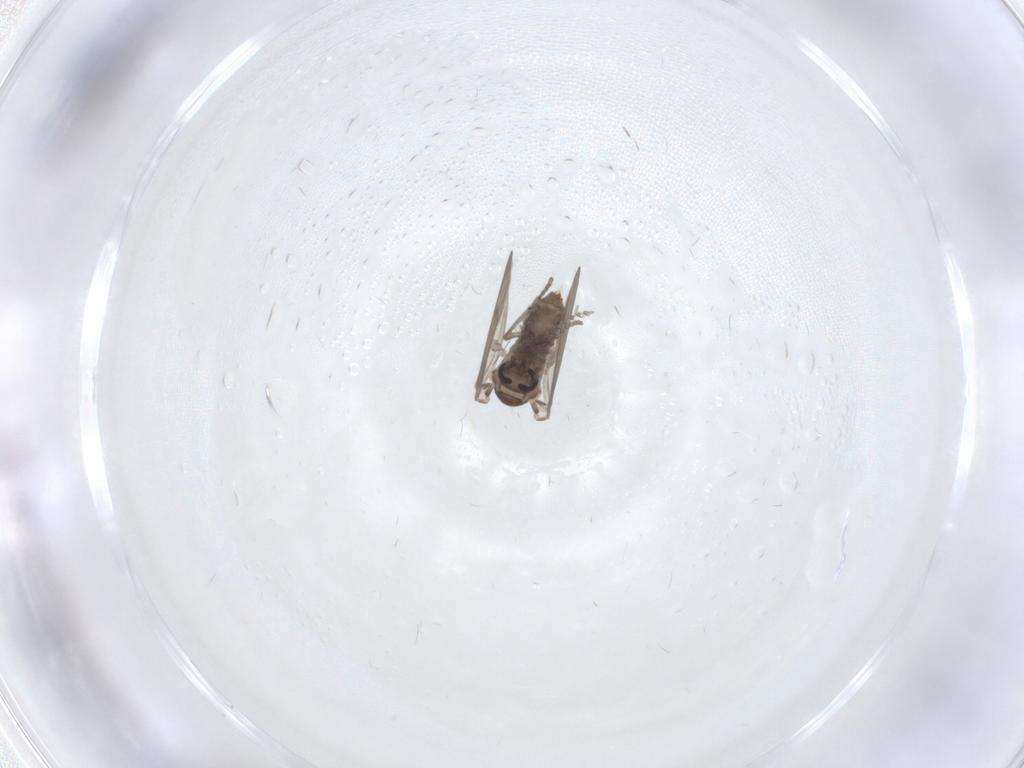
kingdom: Animalia
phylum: Arthropoda
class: Insecta
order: Diptera
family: Psychodidae
